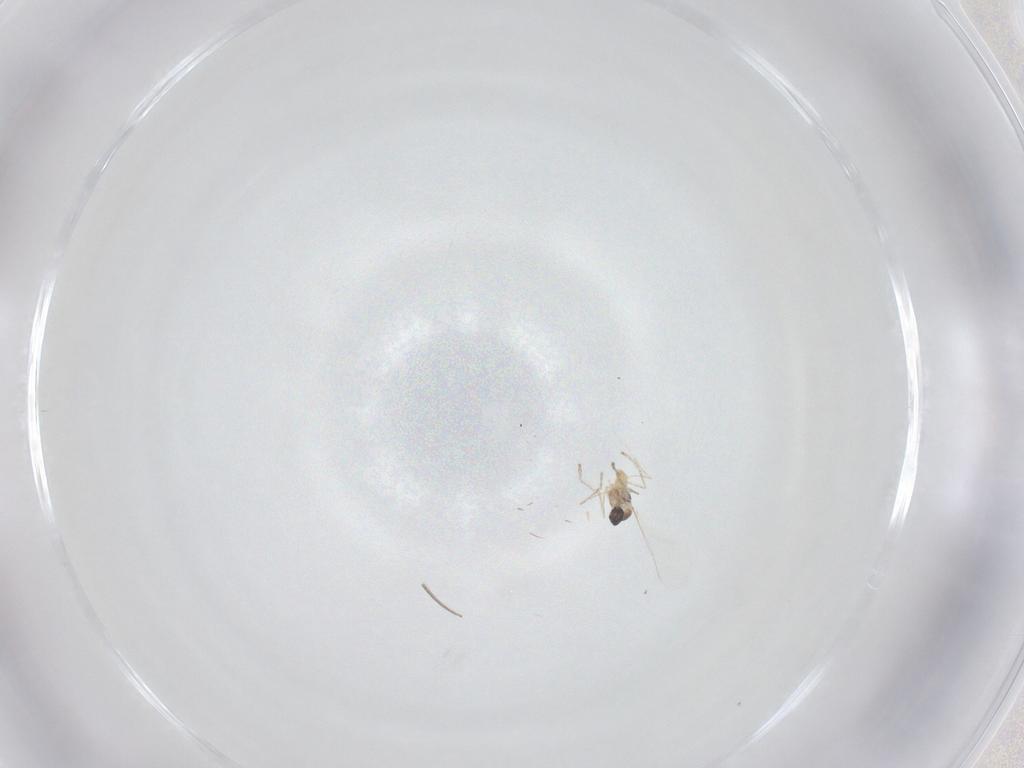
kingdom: Animalia
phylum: Arthropoda
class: Insecta
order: Diptera
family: Cecidomyiidae
